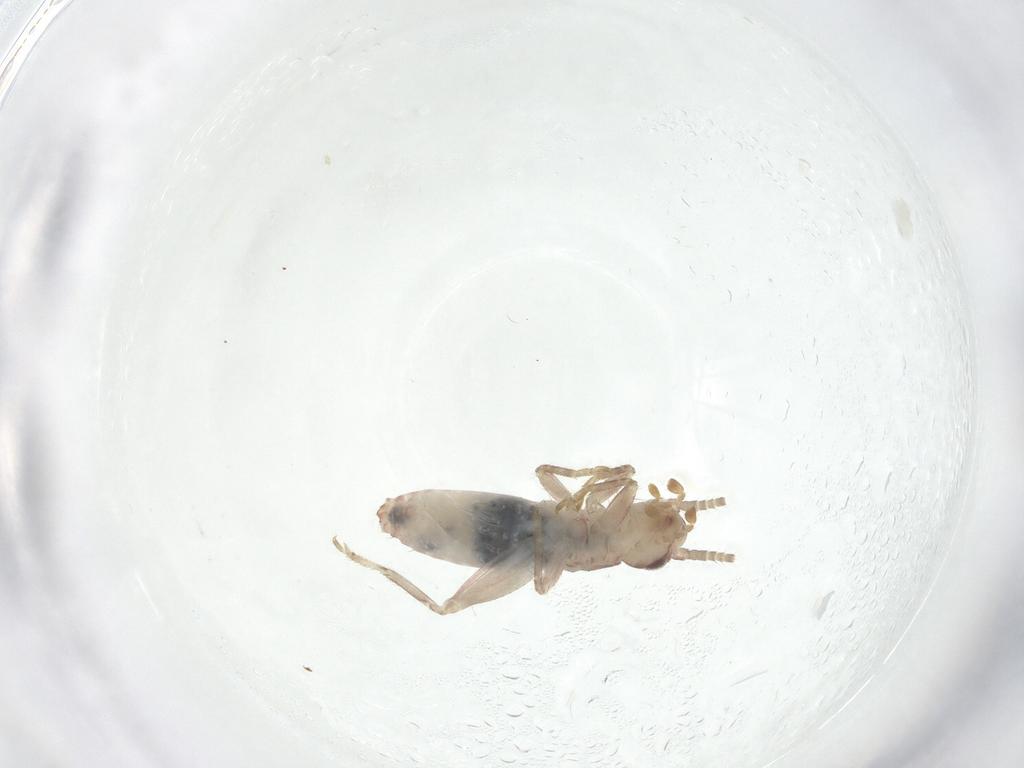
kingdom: Animalia
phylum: Arthropoda
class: Insecta
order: Orthoptera
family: Mogoplistidae
